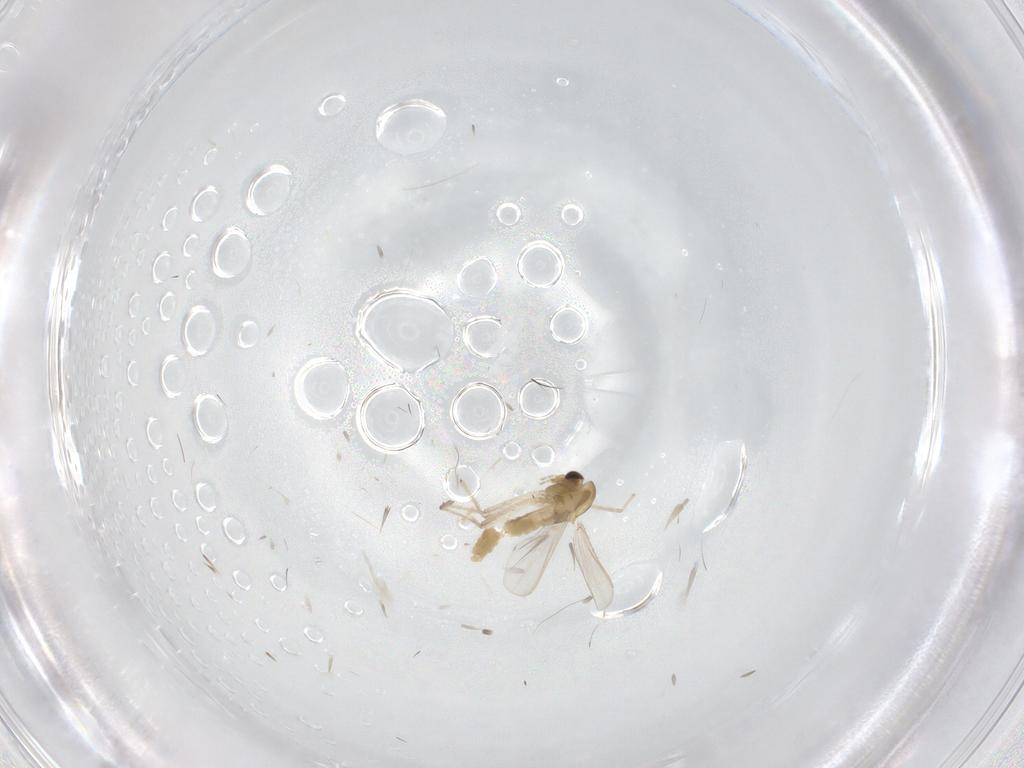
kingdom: Animalia
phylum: Arthropoda
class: Insecta
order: Diptera
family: Chironomidae
